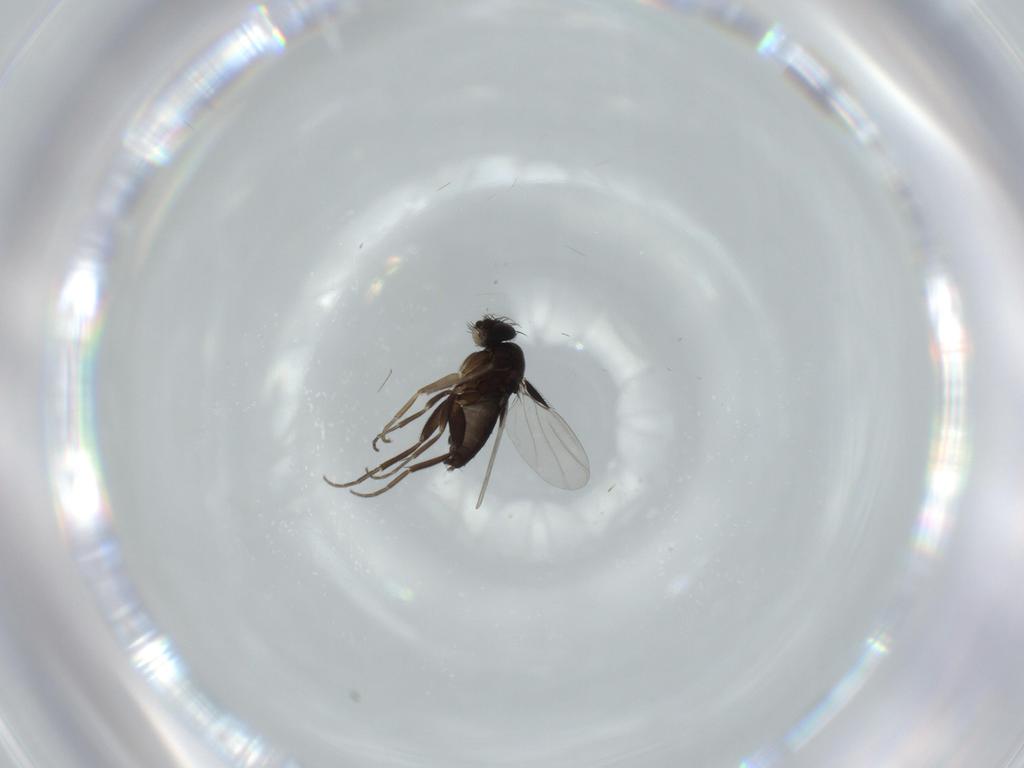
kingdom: Animalia
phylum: Arthropoda
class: Insecta
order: Diptera
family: Phoridae
